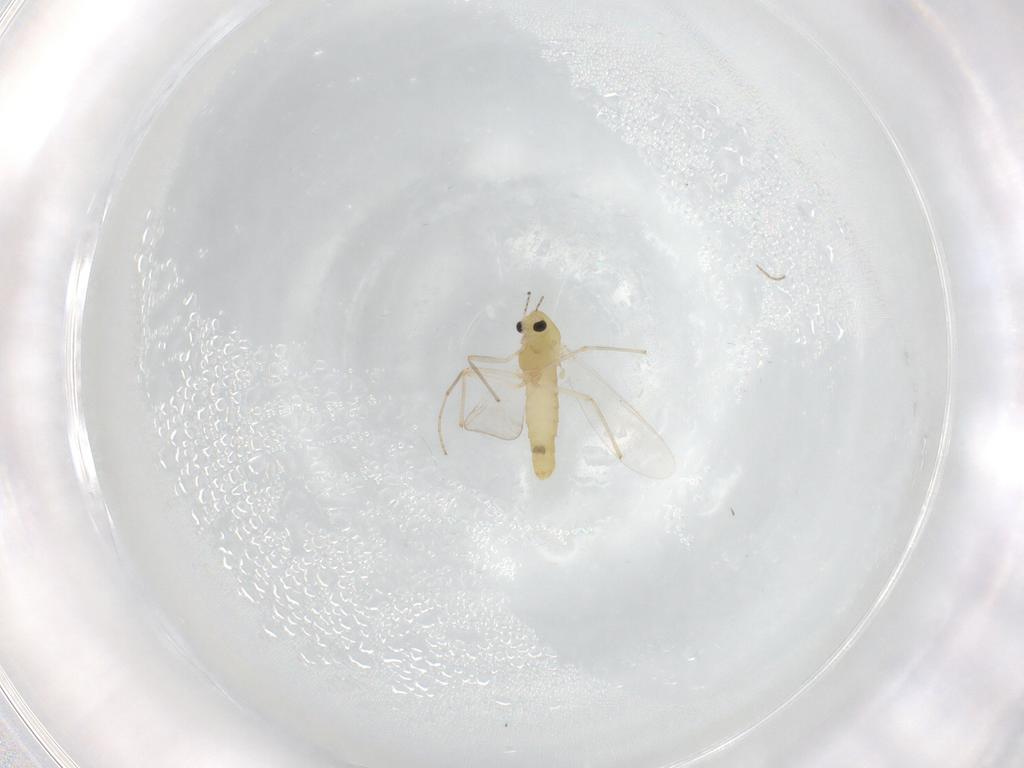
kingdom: Animalia
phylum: Arthropoda
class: Insecta
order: Diptera
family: Chironomidae
